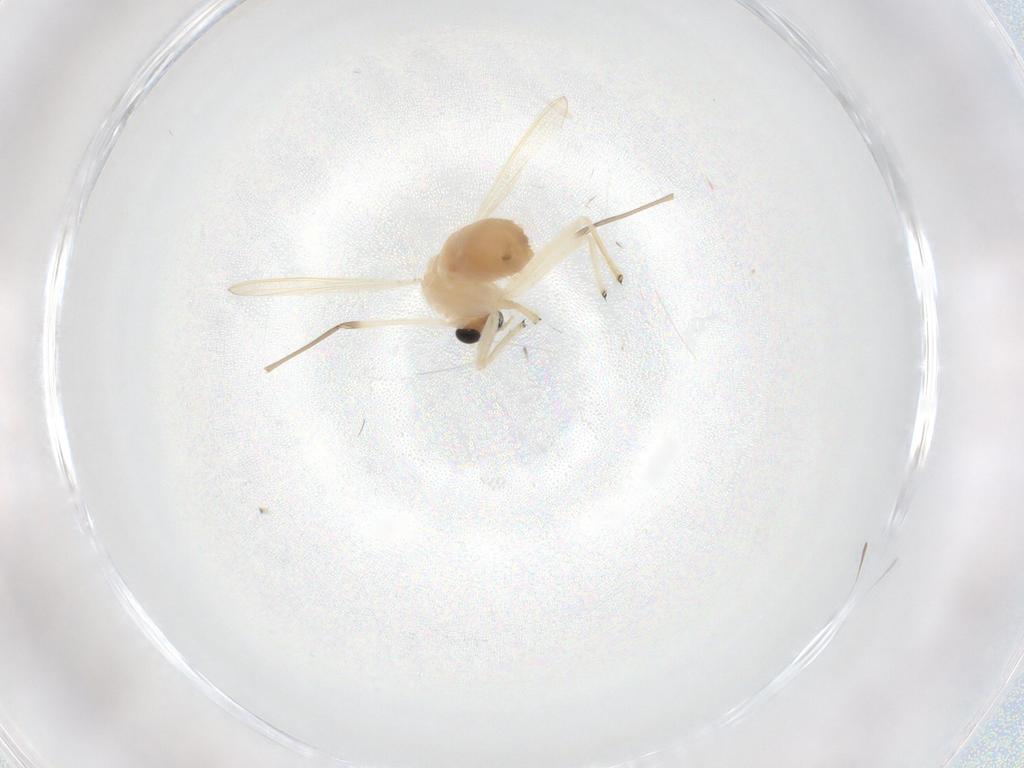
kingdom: Animalia
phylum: Arthropoda
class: Insecta
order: Diptera
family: Chironomidae
